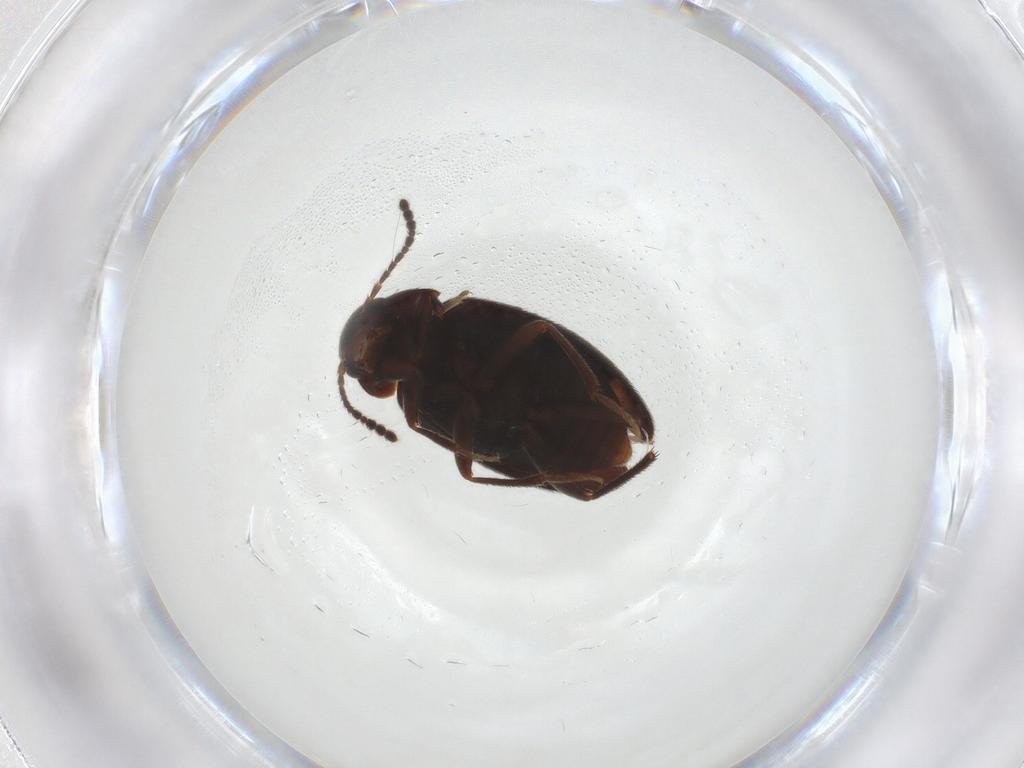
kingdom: Animalia
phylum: Arthropoda
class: Insecta
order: Coleoptera
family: Leiodidae
